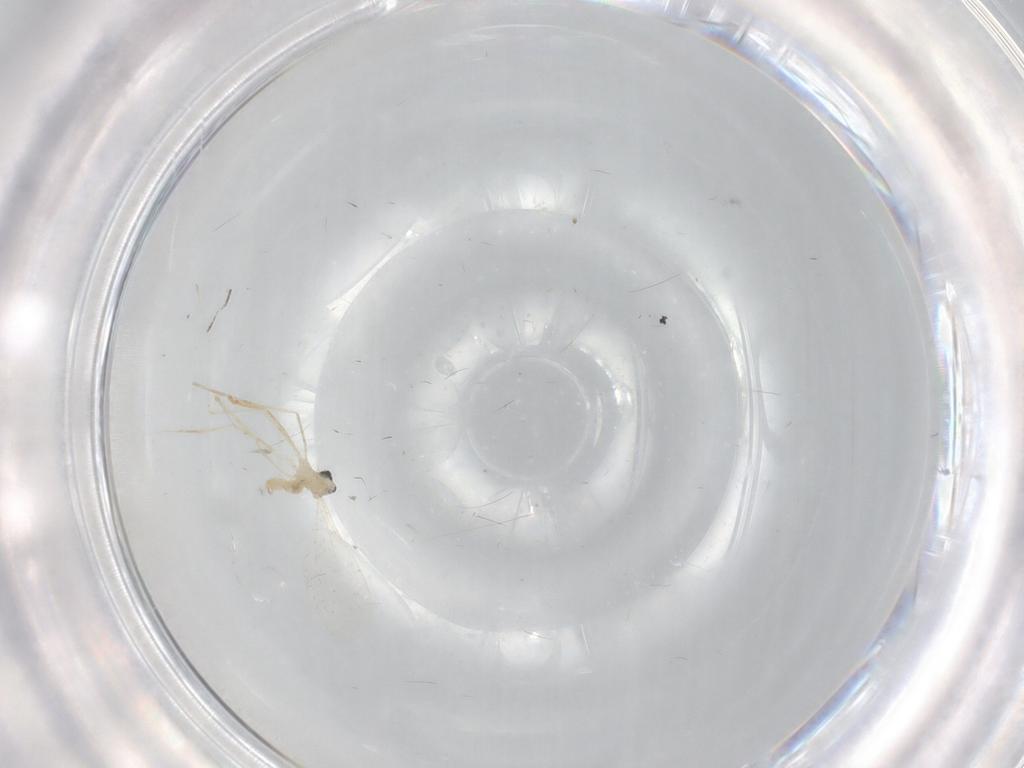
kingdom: Animalia
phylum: Arthropoda
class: Insecta
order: Diptera
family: Cecidomyiidae
